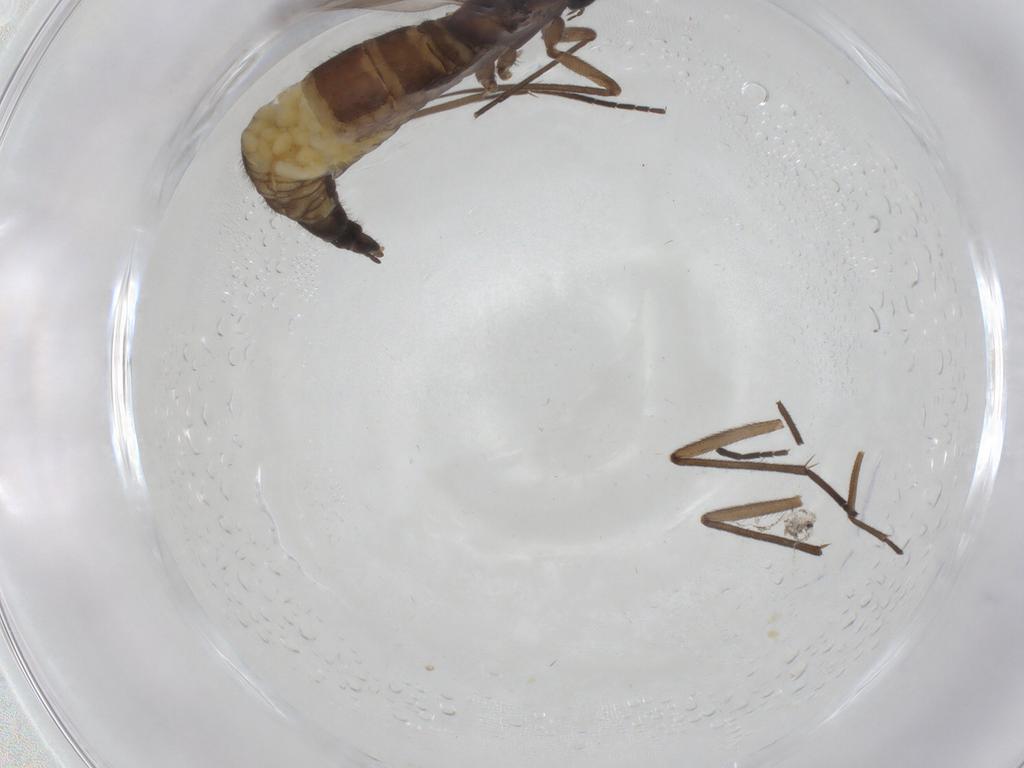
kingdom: Animalia
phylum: Arthropoda
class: Insecta
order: Diptera
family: Sciaridae
